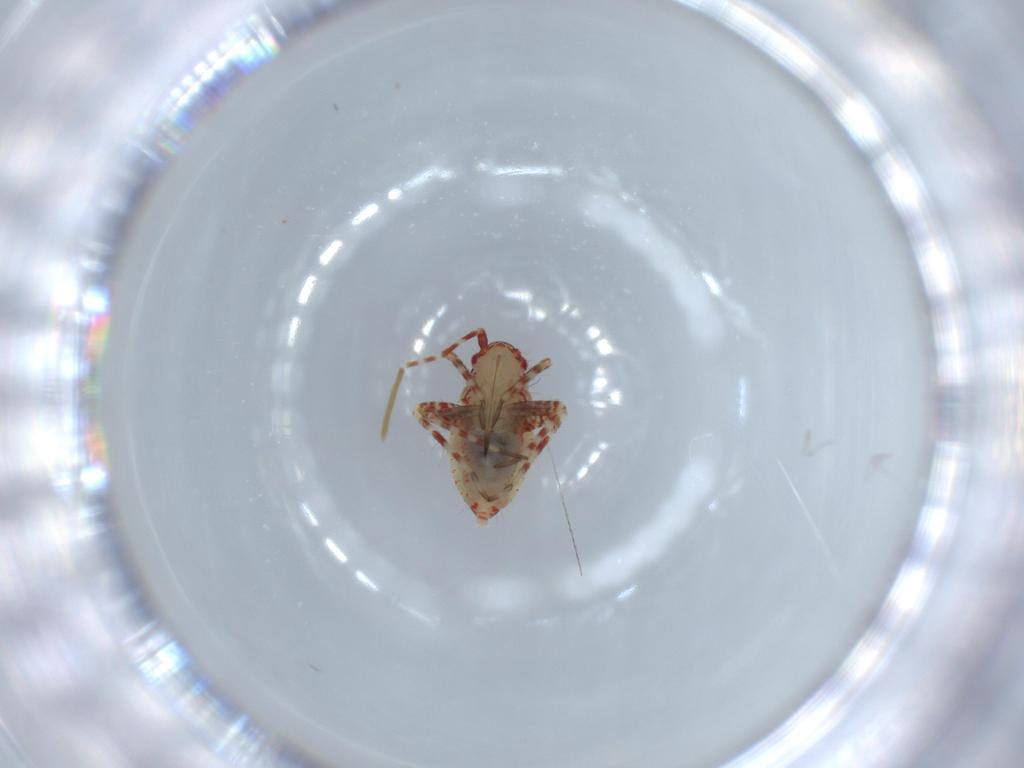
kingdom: Animalia
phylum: Arthropoda
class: Insecta
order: Hemiptera
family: Miridae
